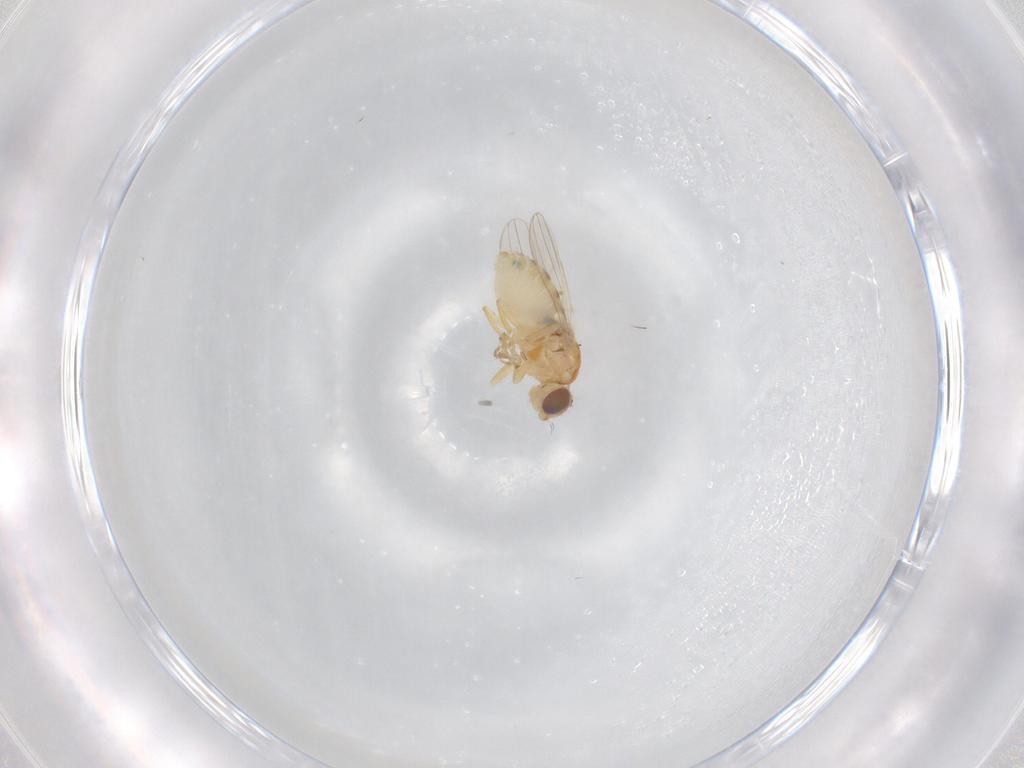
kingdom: Animalia
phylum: Arthropoda
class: Insecta
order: Diptera
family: Chyromyidae
